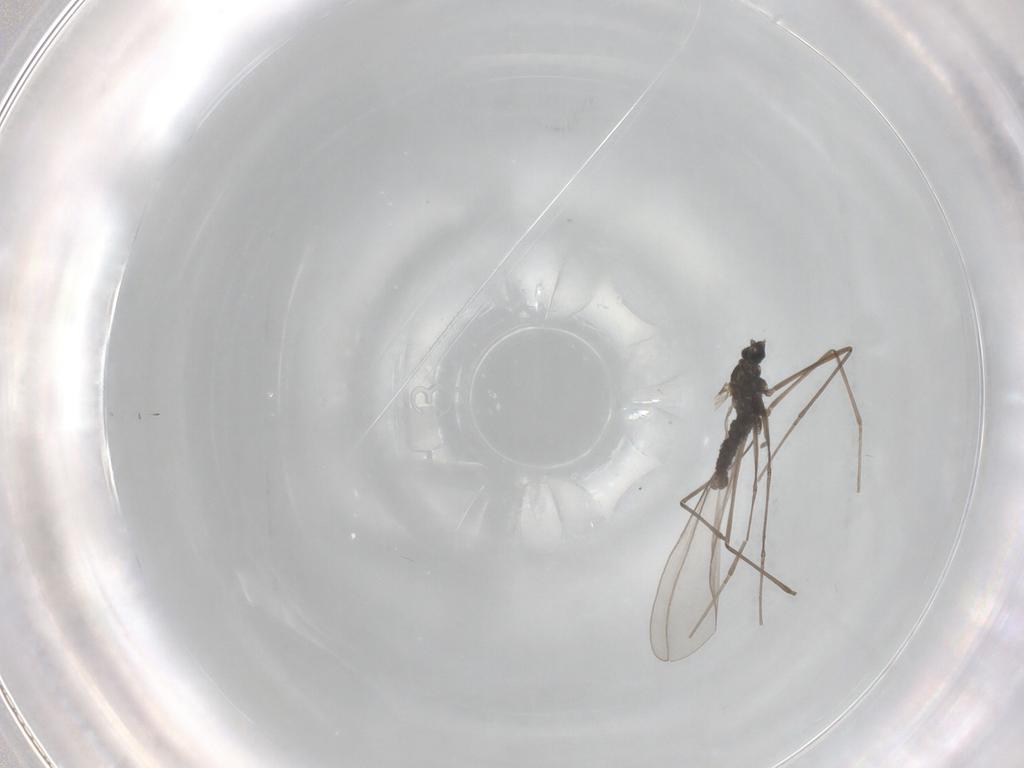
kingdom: Animalia
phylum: Arthropoda
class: Insecta
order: Diptera
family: Cecidomyiidae
